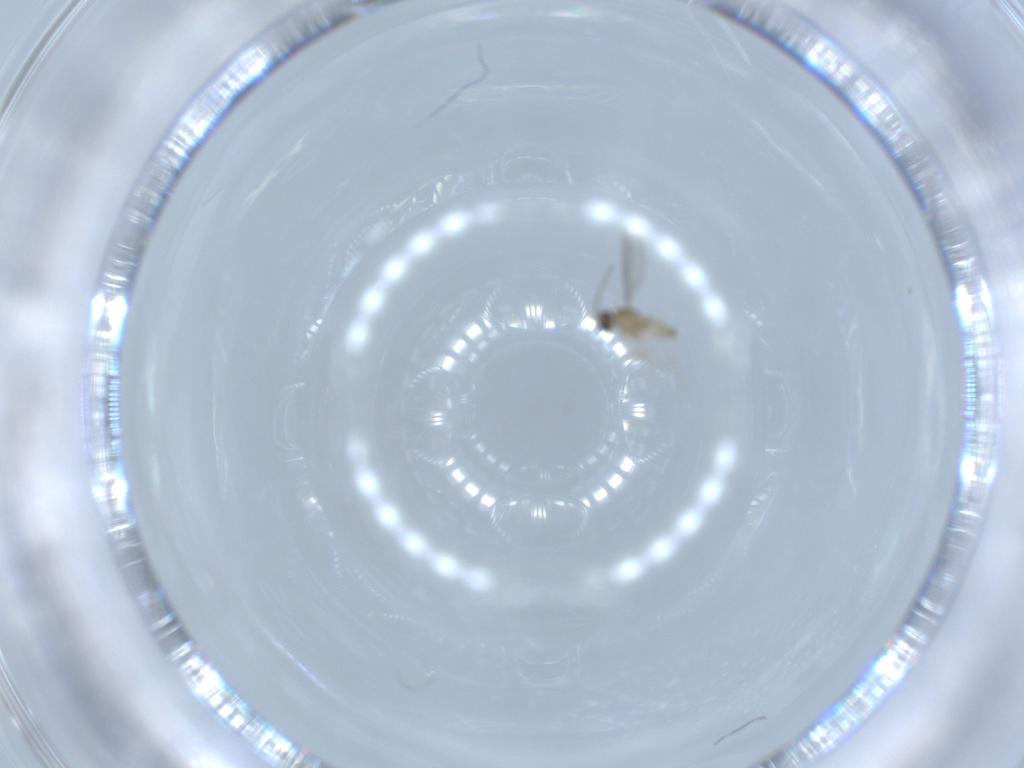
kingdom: Animalia
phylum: Arthropoda
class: Insecta
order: Diptera
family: Cecidomyiidae
